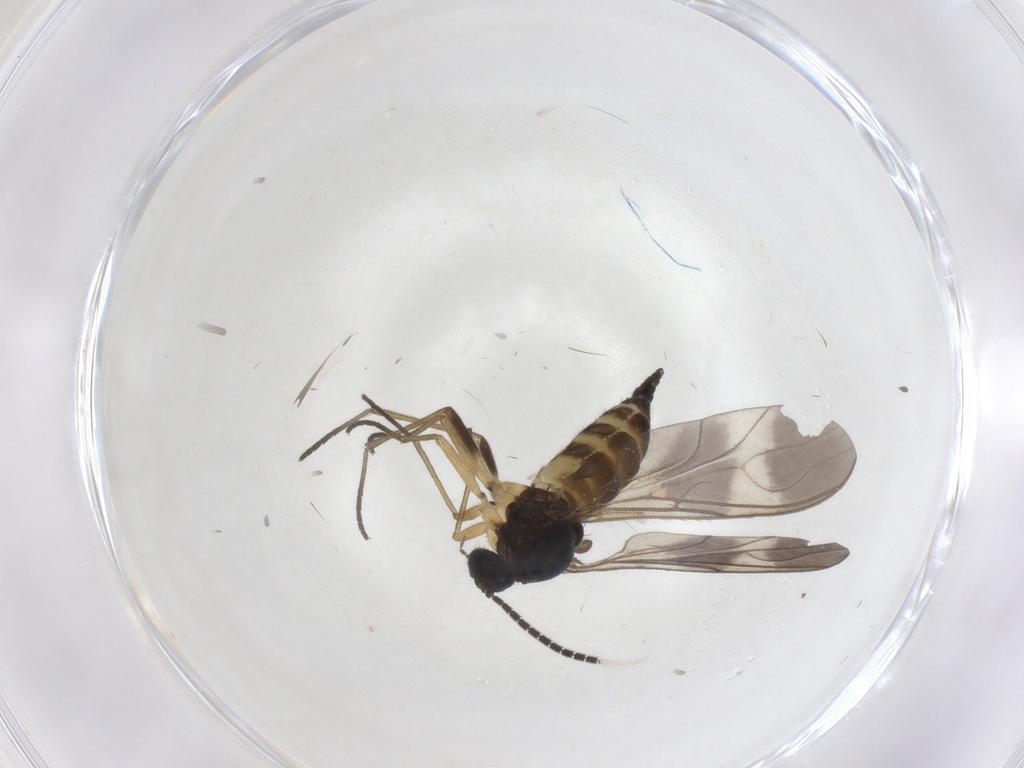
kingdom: Animalia
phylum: Arthropoda
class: Insecta
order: Diptera
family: Sciaridae
